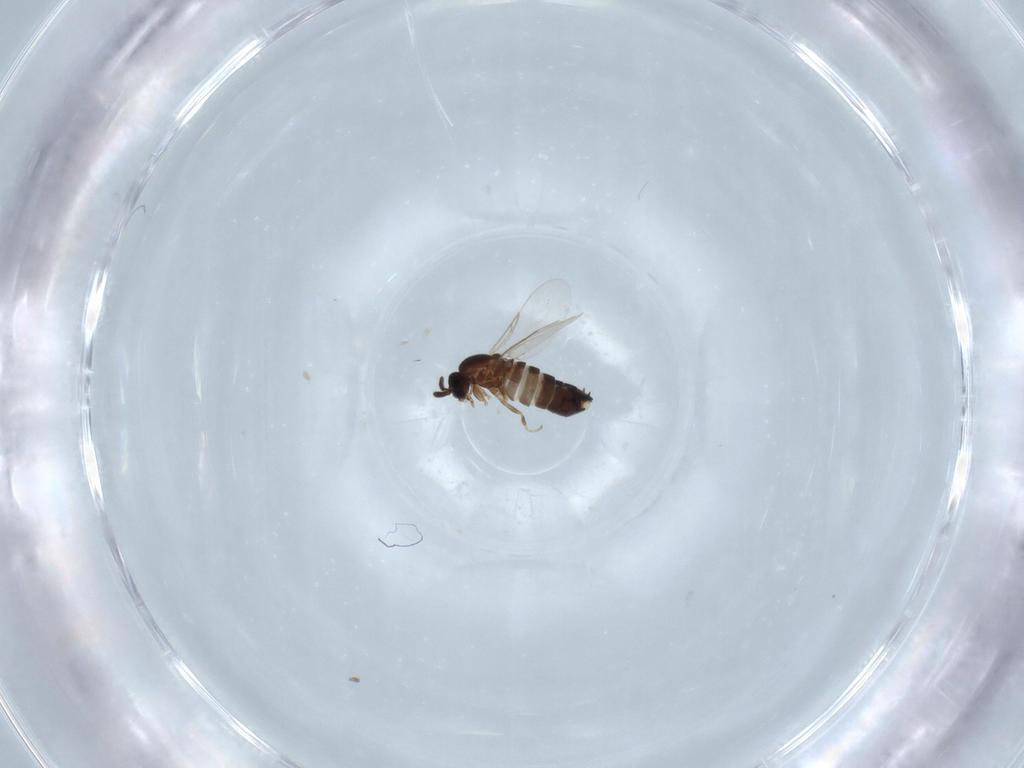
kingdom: Animalia
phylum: Arthropoda
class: Insecta
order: Diptera
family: Scatopsidae
